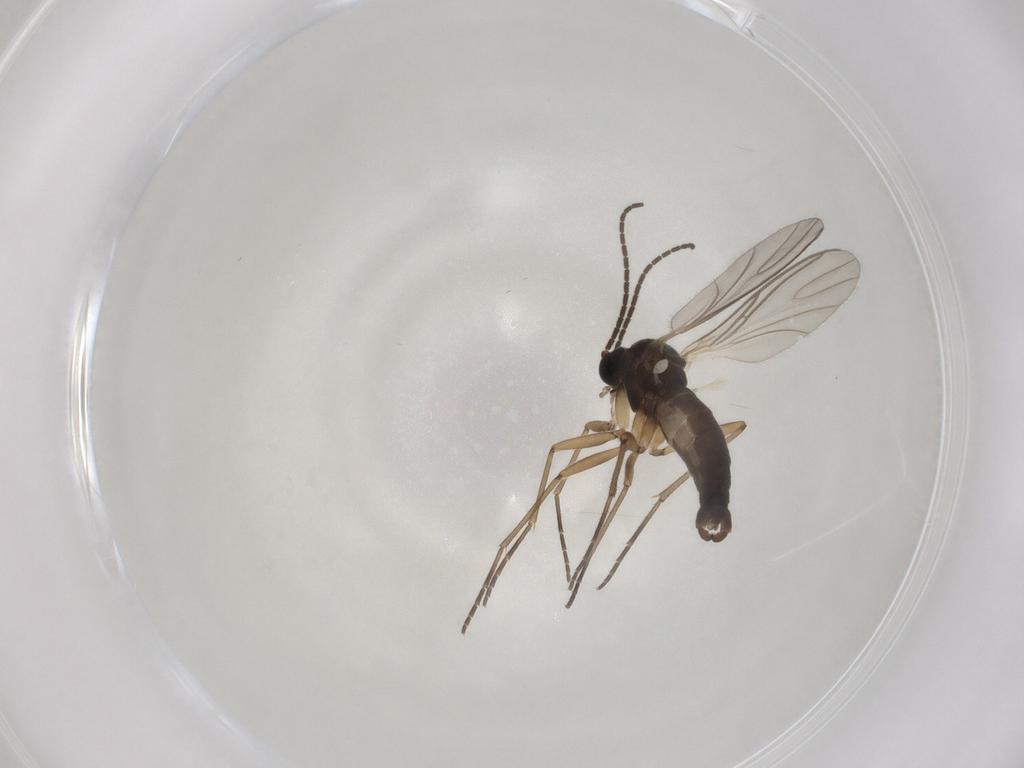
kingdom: Animalia
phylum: Arthropoda
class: Insecta
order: Diptera
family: Sciaridae
